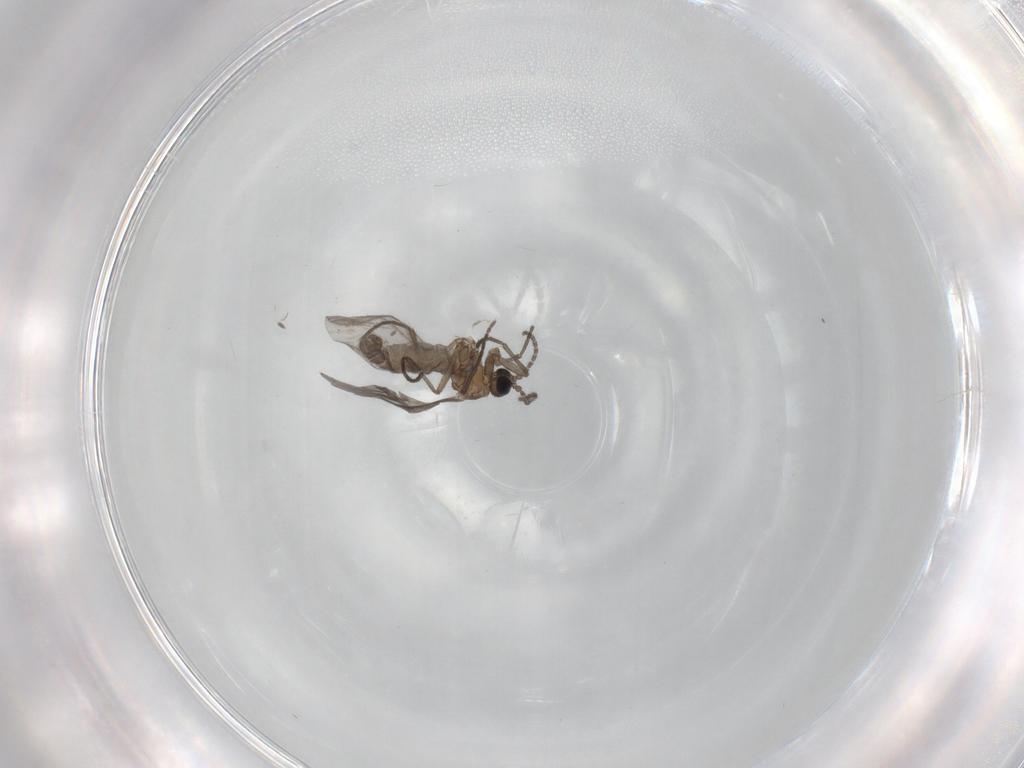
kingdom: Animalia
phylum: Arthropoda
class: Insecta
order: Diptera
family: Cecidomyiidae
